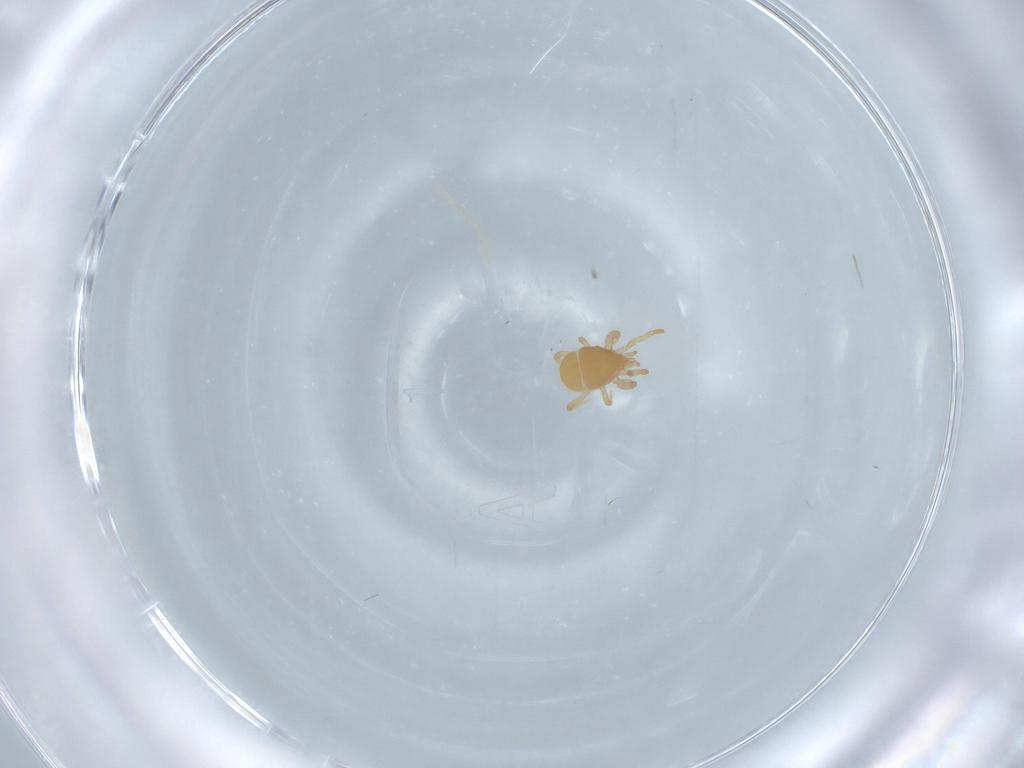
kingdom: Animalia
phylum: Arthropoda
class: Arachnida
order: Mesostigmata
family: Parasitidae
